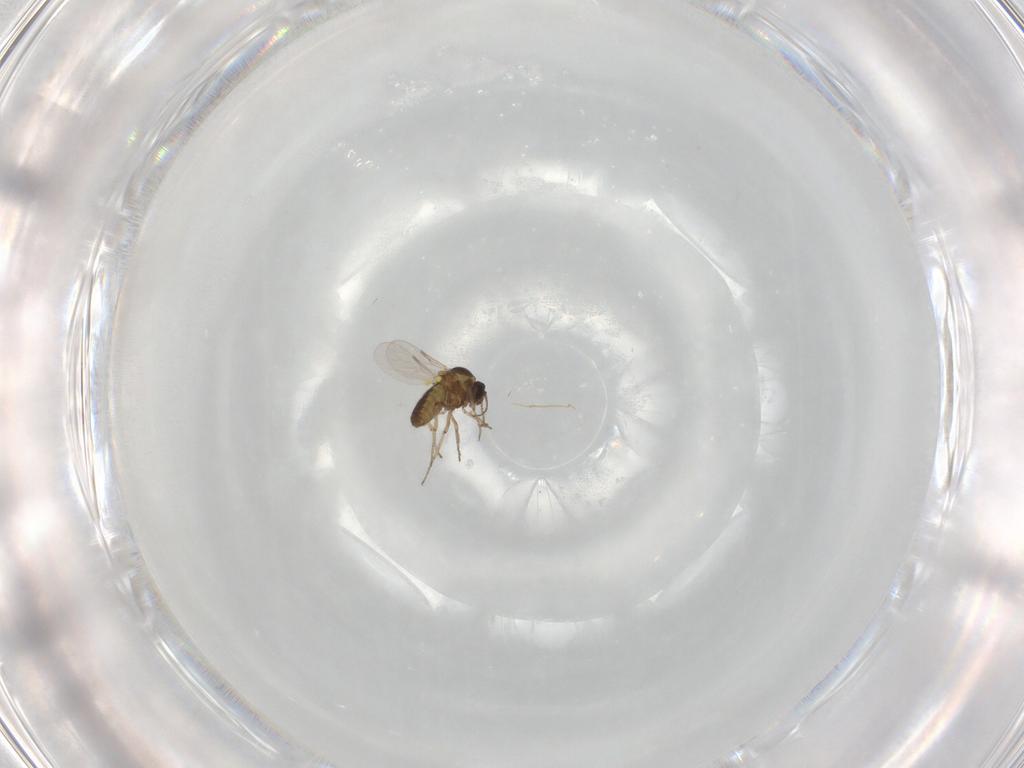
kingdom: Animalia
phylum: Arthropoda
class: Insecta
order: Diptera
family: Ceratopogonidae
